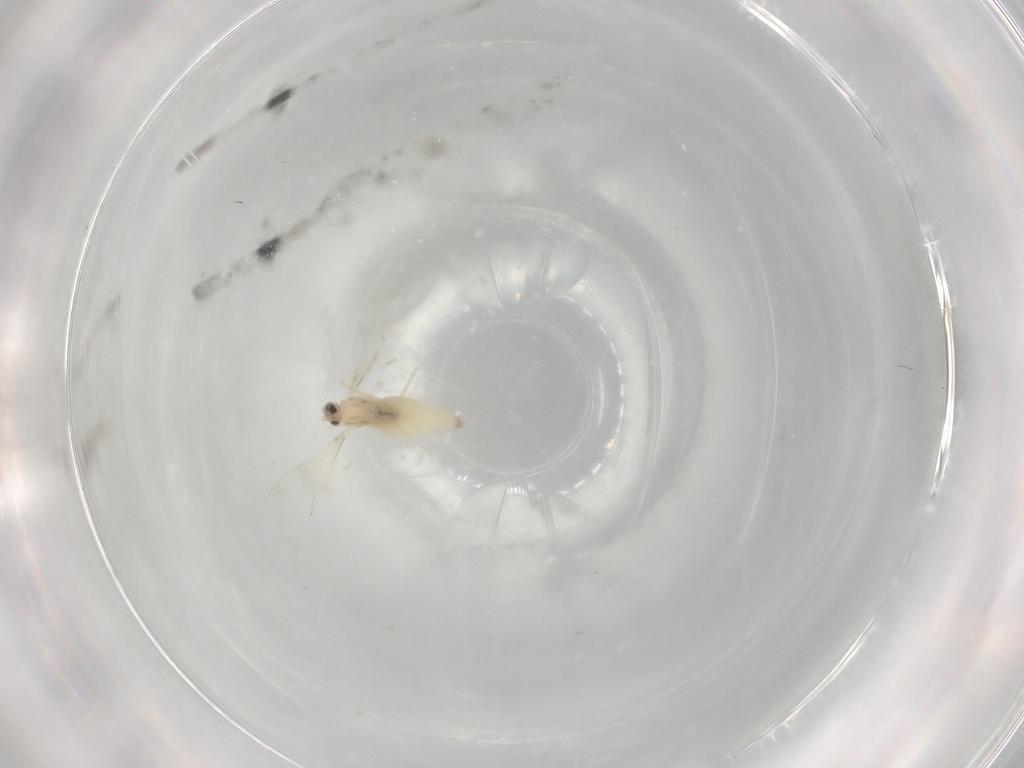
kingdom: Animalia
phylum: Arthropoda
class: Insecta
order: Diptera
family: Cecidomyiidae
